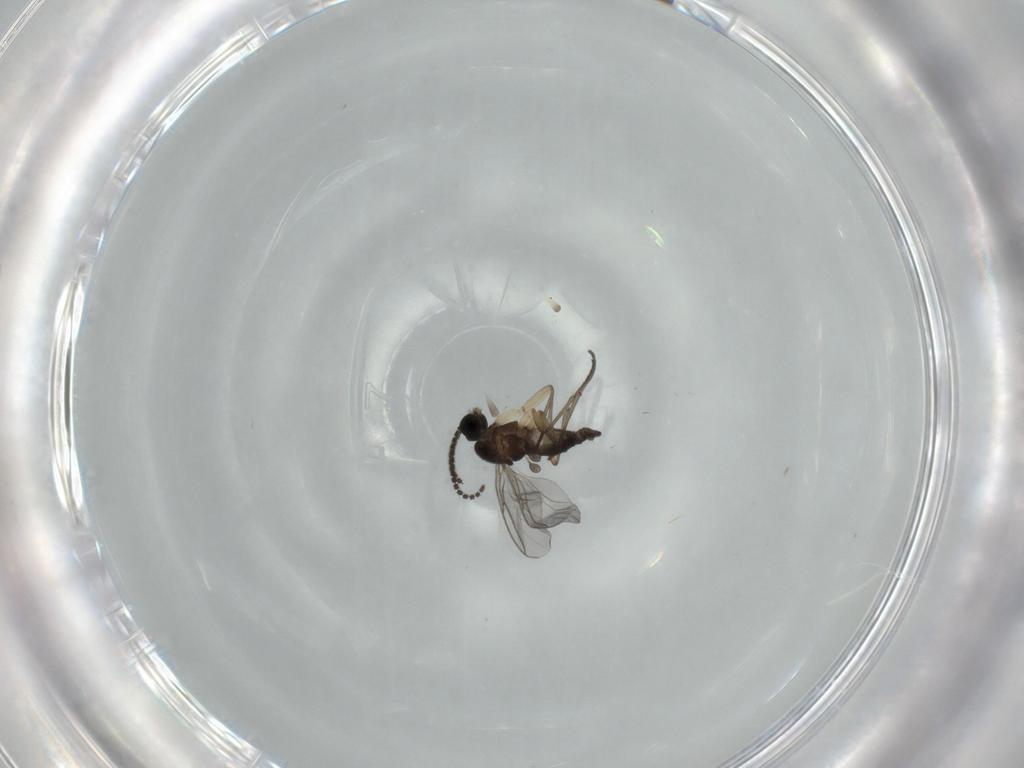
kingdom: Animalia
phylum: Arthropoda
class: Insecta
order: Diptera
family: Sciaridae
